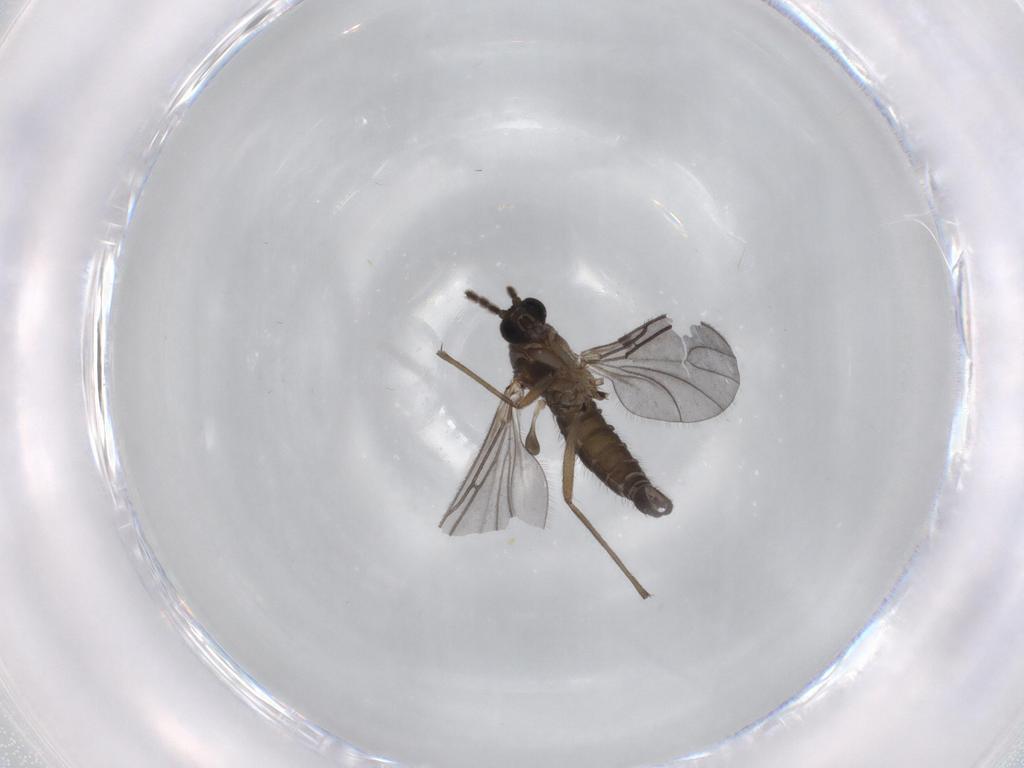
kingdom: Animalia
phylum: Arthropoda
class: Insecta
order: Diptera
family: Sciaridae
